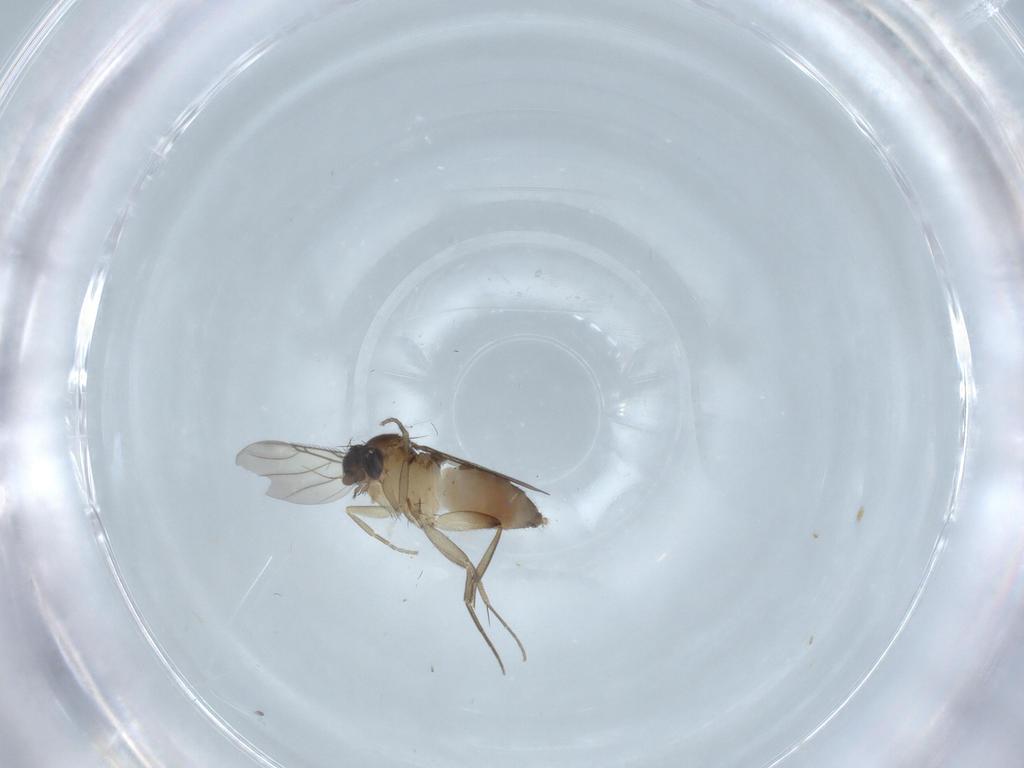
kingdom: Animalia
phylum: Arthropoda
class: Insecta
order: Diptera
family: Phoridae
